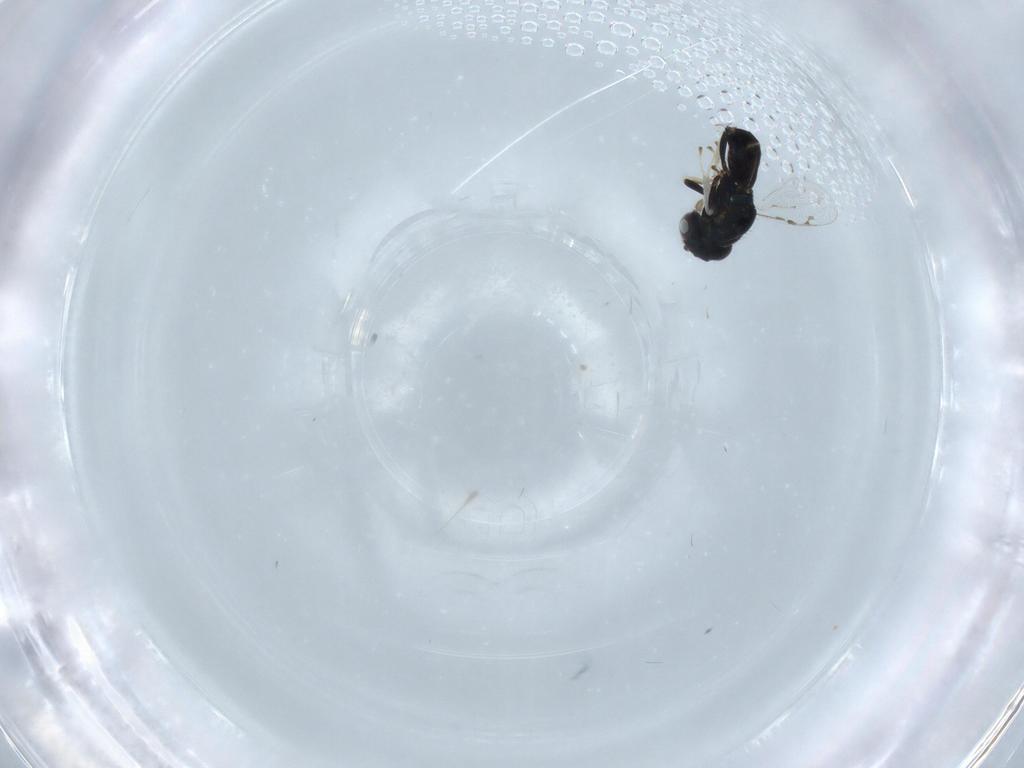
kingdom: Animalia
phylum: Arthropoda
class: Insecta
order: Hymenoptera
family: Pirenidae
